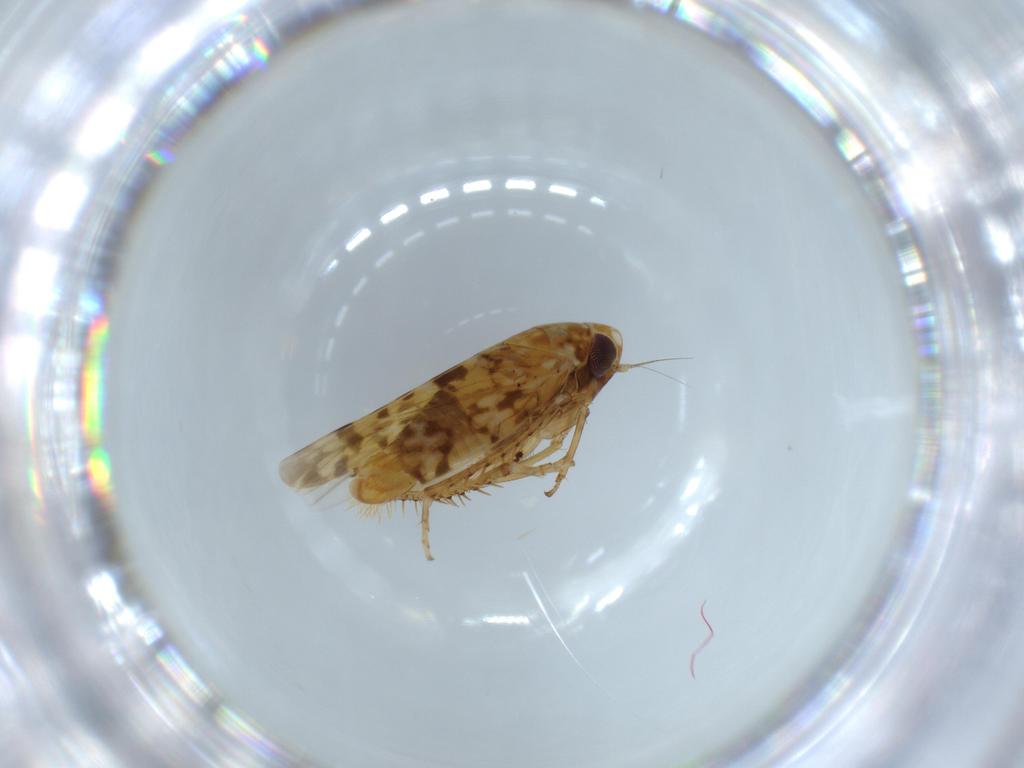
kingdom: Animalia
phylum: Arthropoda
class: Insecta
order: Hemiptera
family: Cicadellidae
